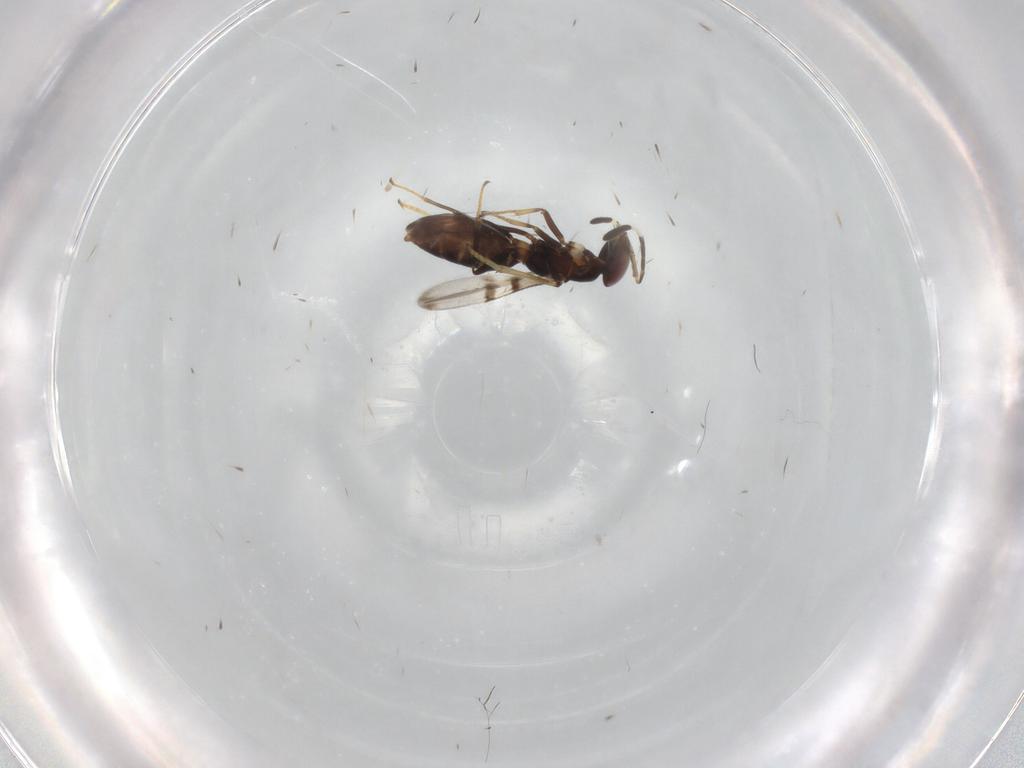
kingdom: Animalia
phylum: Arthropoda
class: Insecta
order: Hymenoptera
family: Encyrtidae
